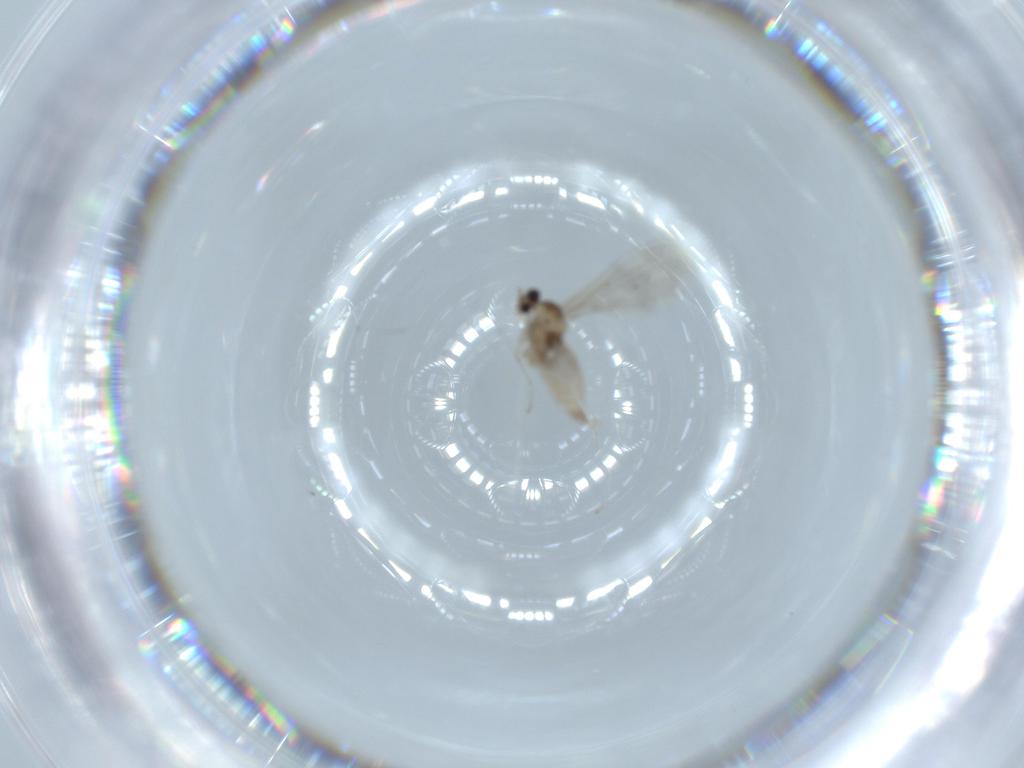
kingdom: Animalia
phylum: Arthropoda
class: Insecta
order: Diptera
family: Cecidomyiidae
